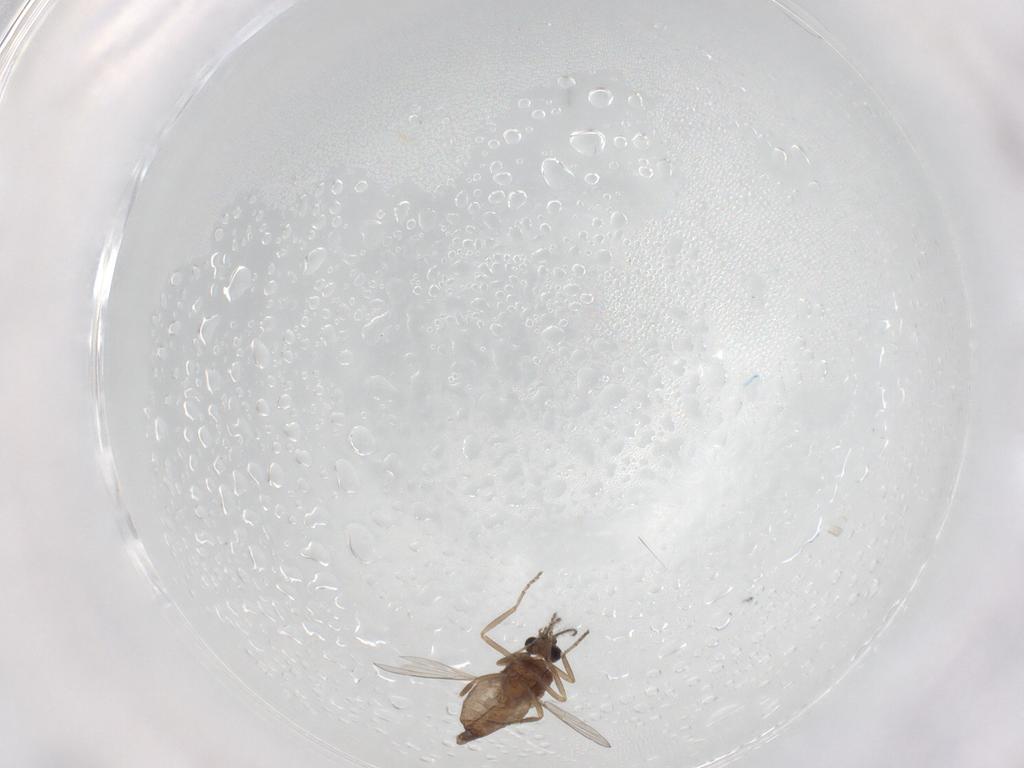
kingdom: Animalia
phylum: Arthropoda
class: Insecta
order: Diptera
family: Ceratopogonidae
